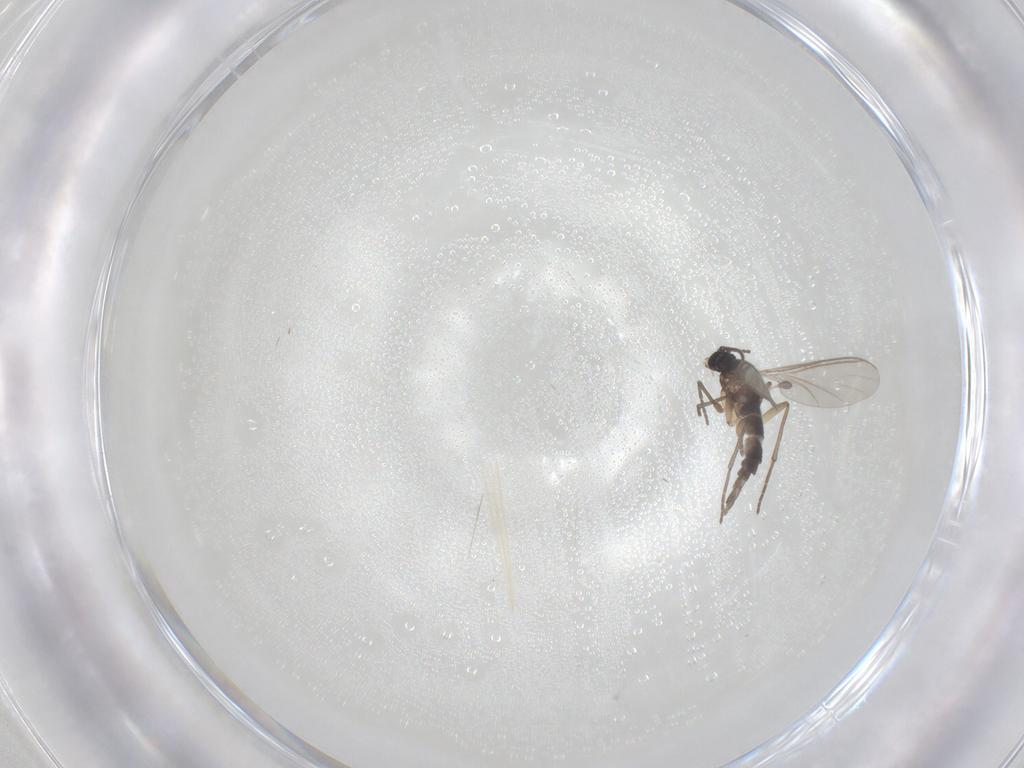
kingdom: Animalia
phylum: Arthropoda
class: Insecta
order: Diptera
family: Sciaridae
